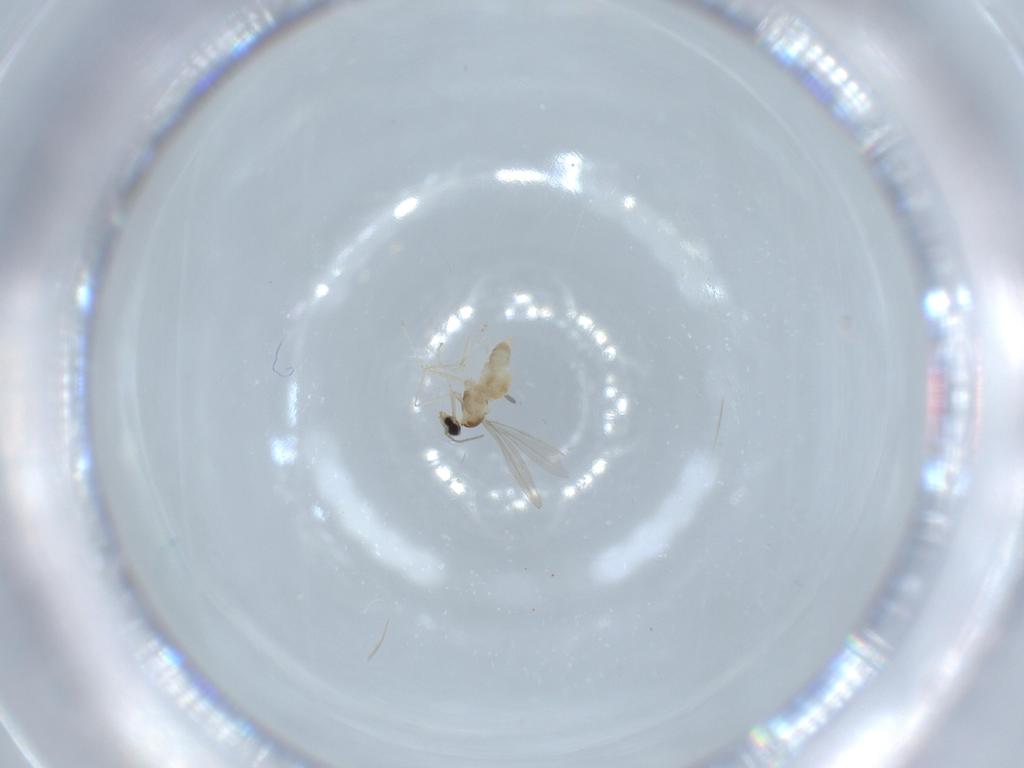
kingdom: Animalia
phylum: Arthropoda
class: Insecta
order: Diptera
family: Cecidomyiidae
